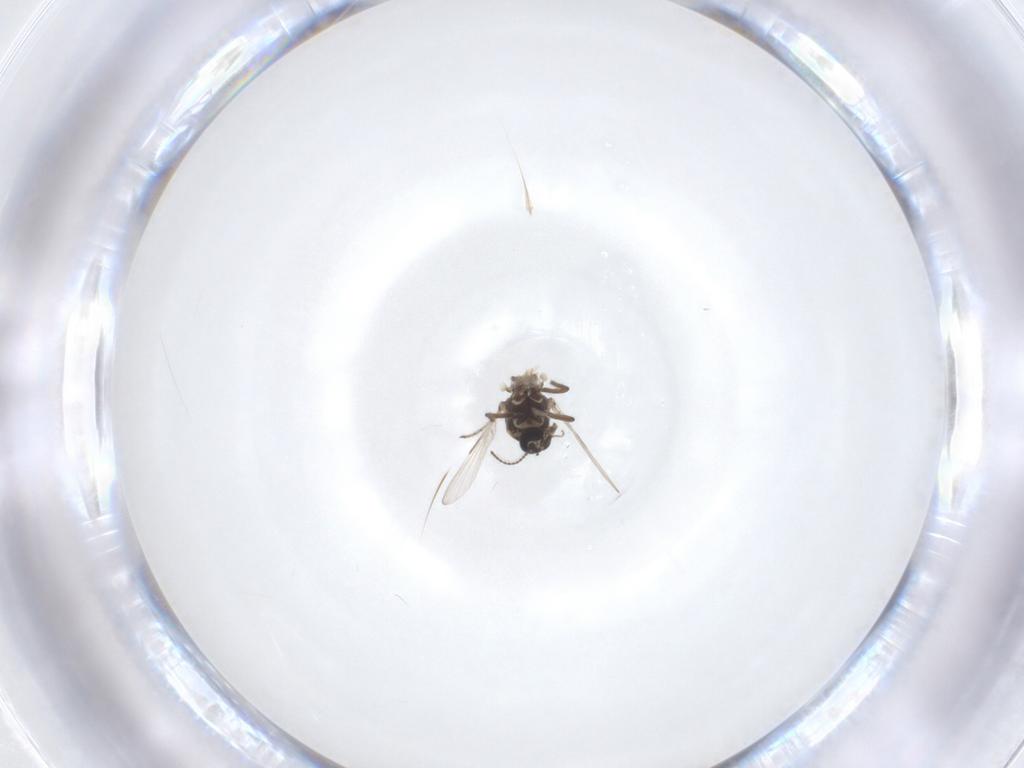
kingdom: Animalia
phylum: Arthropoda
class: Insecta
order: Diptera
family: Ceratopogonidae
